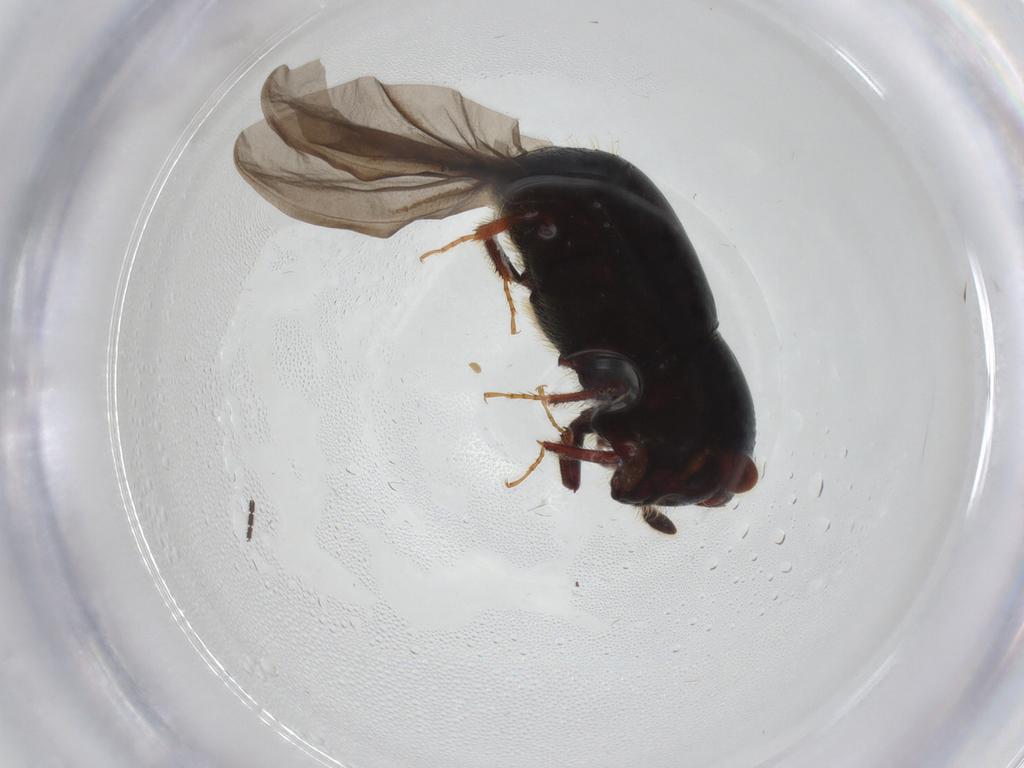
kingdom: Animalia
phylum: Arthropoda
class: Insecta
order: Coleoptera
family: Curculionidae
